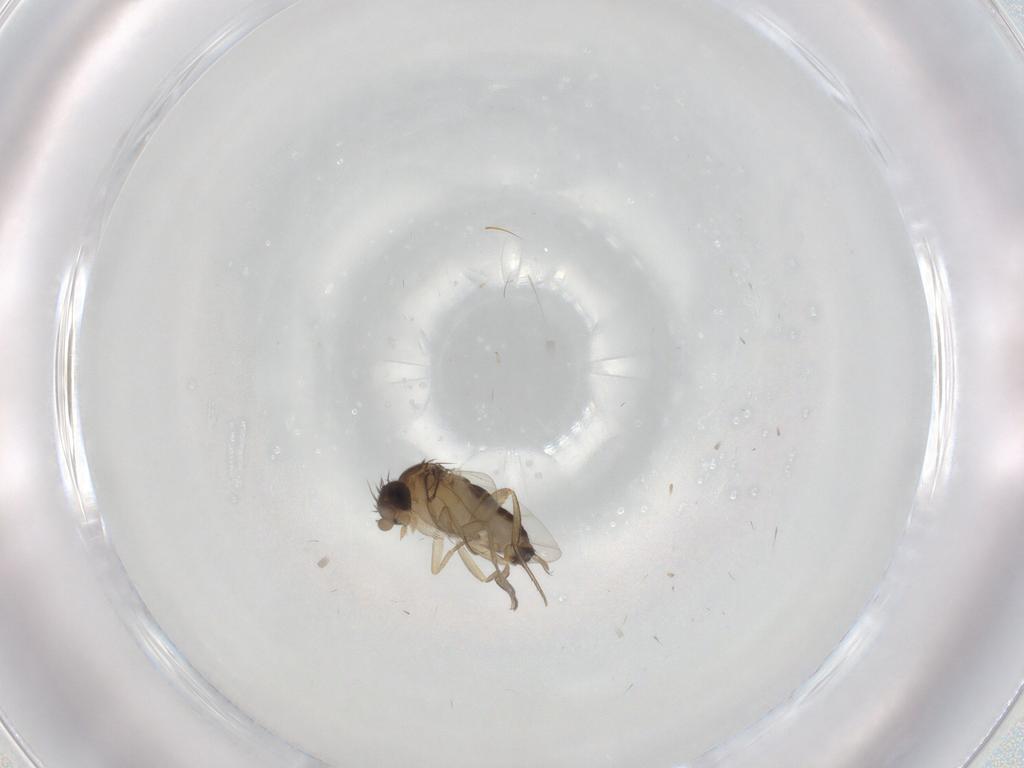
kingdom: Animalia
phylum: Arthropoda
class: Insecta
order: Diptera
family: Phoridae
